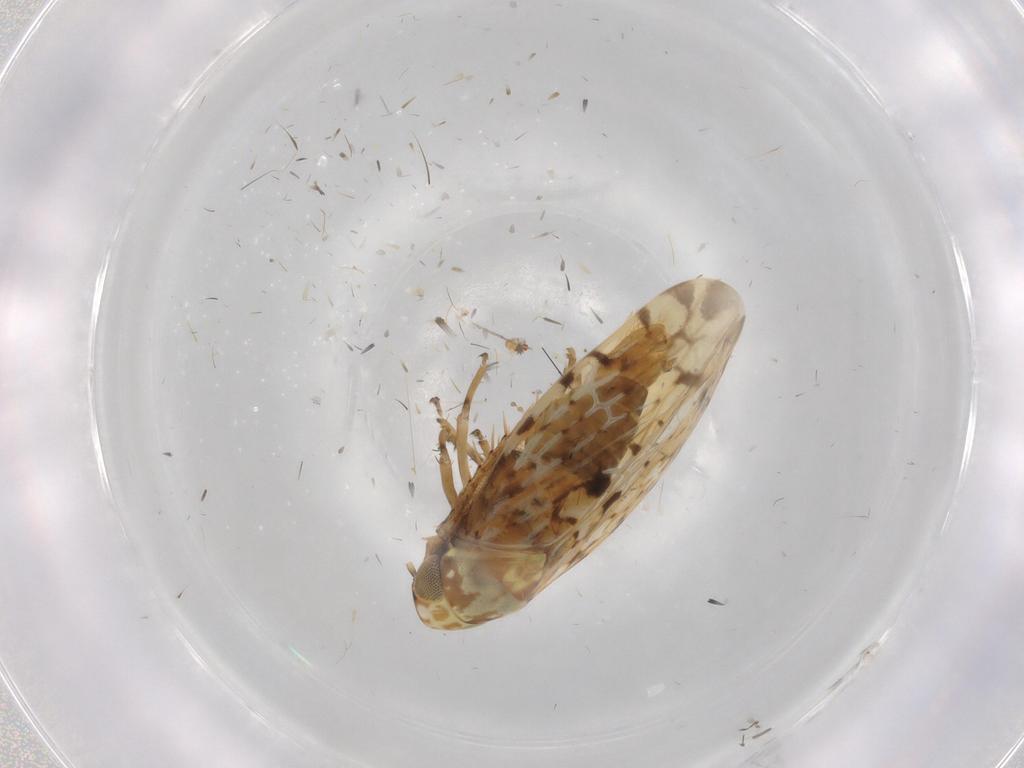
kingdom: Animalia
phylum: Arthropoda
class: Insecta
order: Hemiptera
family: Cicadellidae
